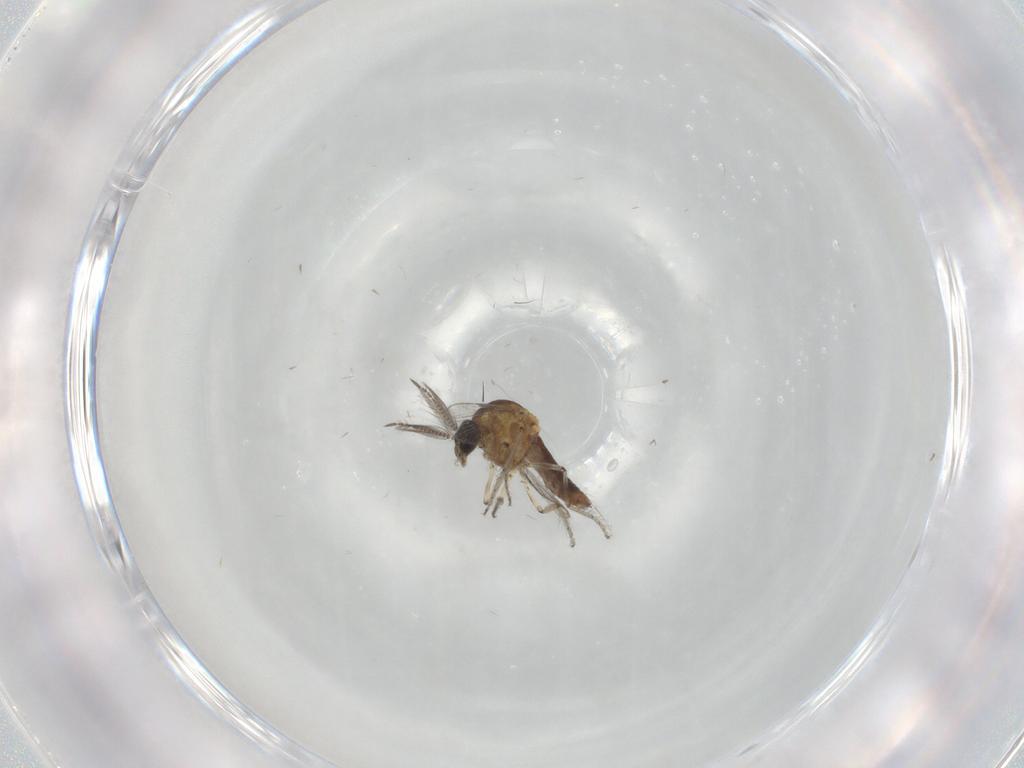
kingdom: Animalia
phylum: Arthropoda
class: Insecta
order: Diptera
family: Ceratopogonidae
